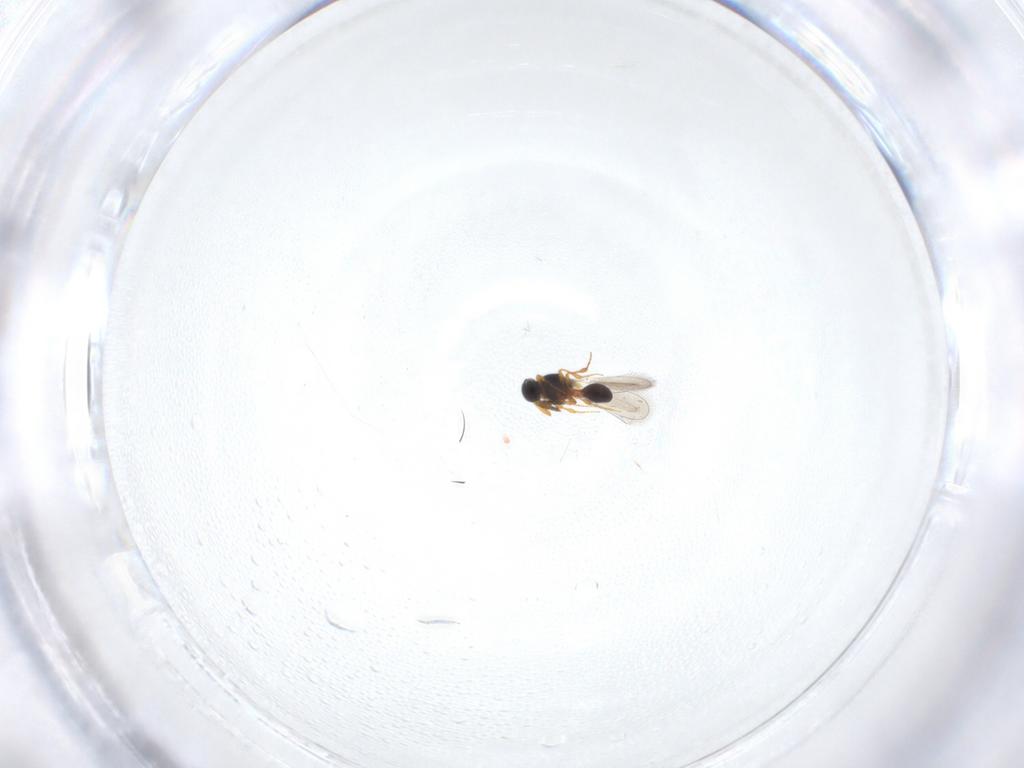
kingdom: Animalia
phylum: Arthropoda
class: Insecta
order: Hymenoptera
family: Platygastridae
